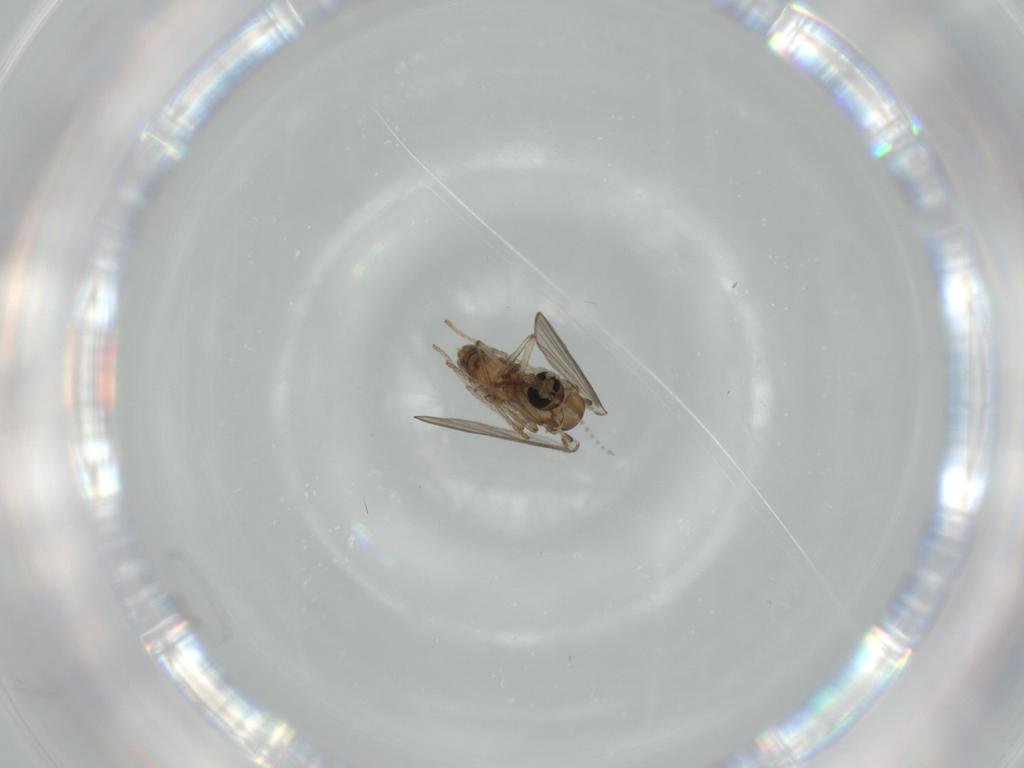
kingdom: Animalia
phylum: Arthropoda
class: Insecta
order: Diptera
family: Psychodidae
